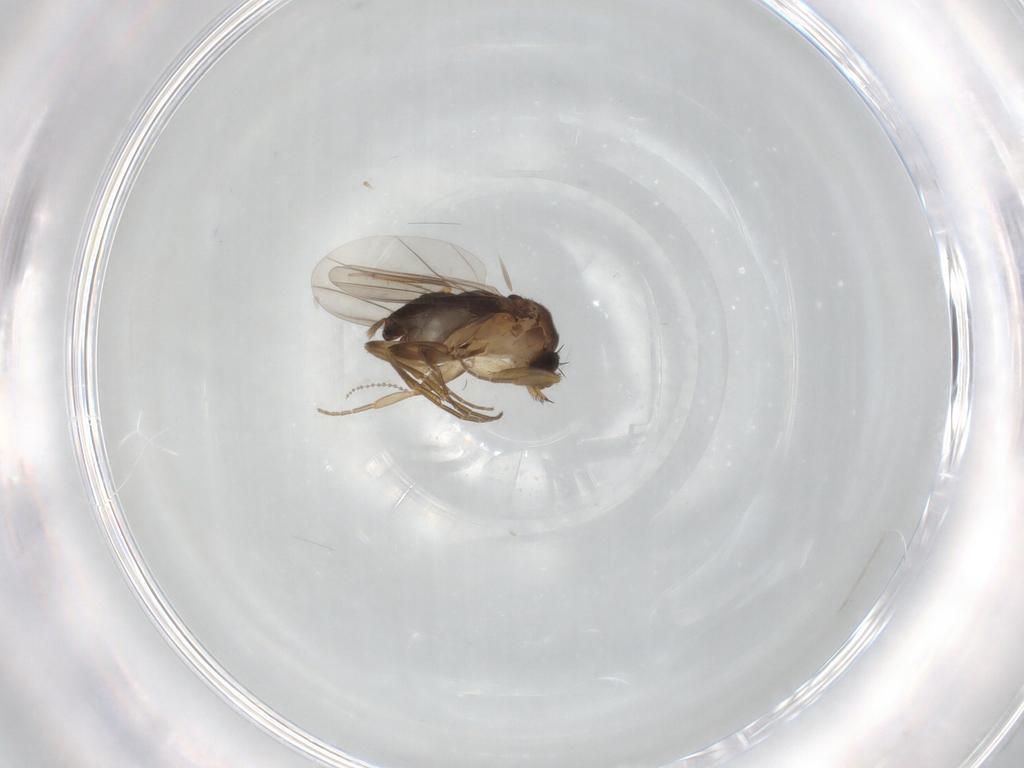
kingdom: Animalia
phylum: Arthropoda
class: Insecta
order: Diptera
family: Phoridae
